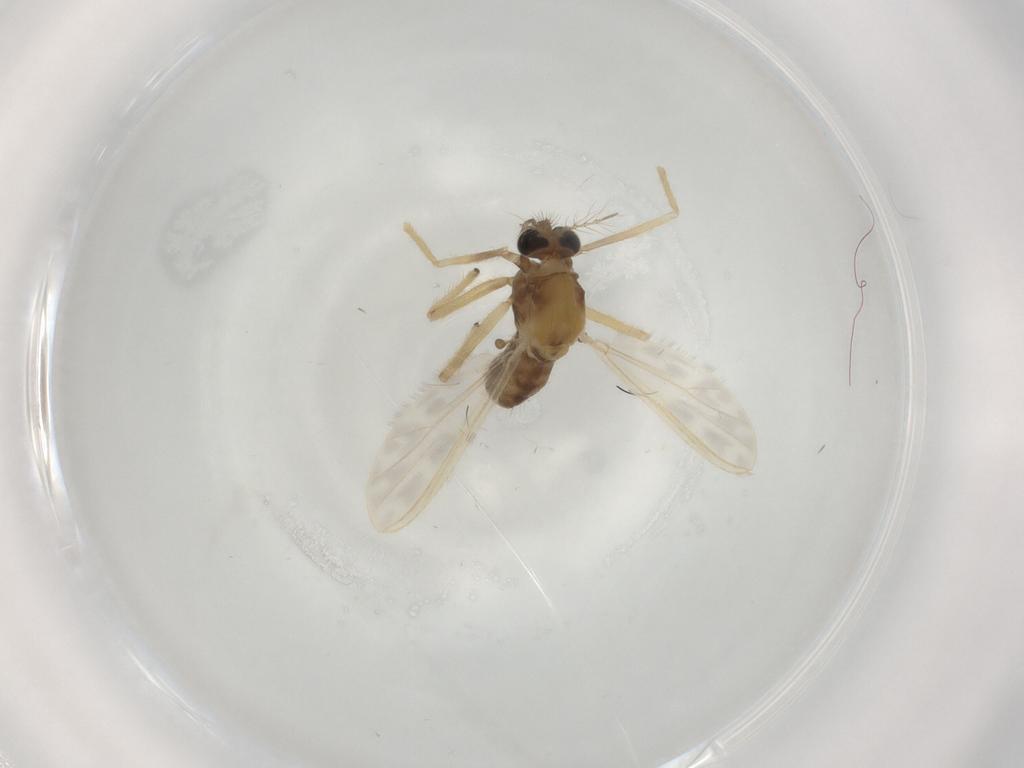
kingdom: Animalia
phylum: Arthropoda
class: Insecta
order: Diptera
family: Chironomidae
